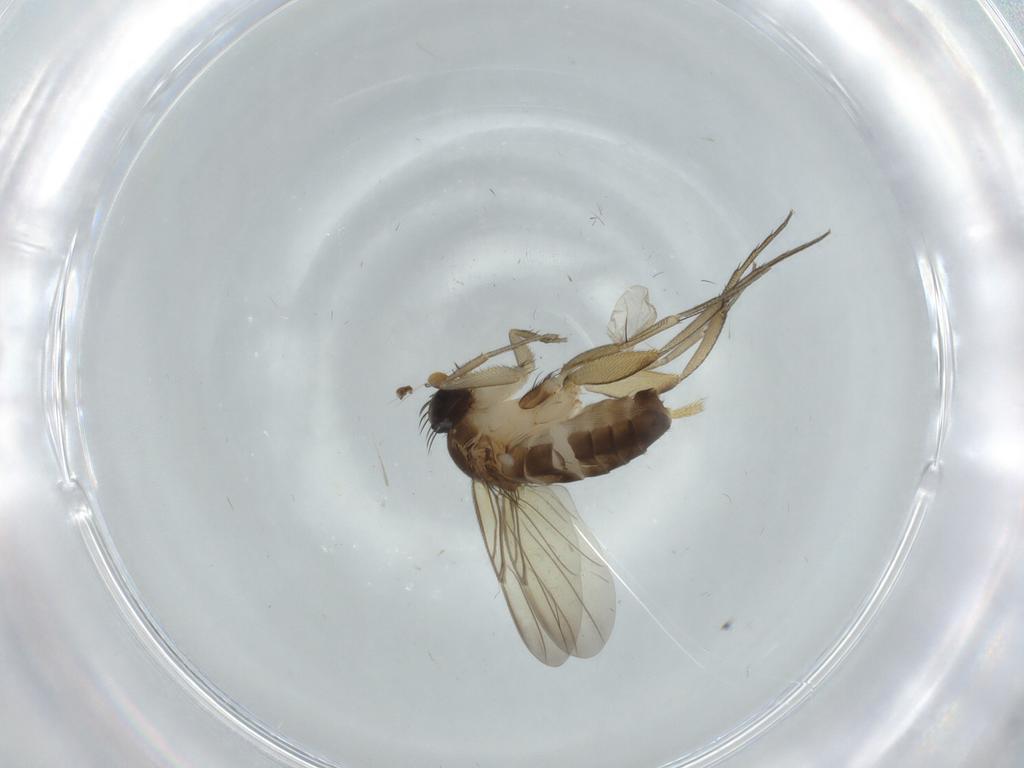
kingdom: Animalia
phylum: Arthropoda
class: Insecta
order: Diptera
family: Phoridae
